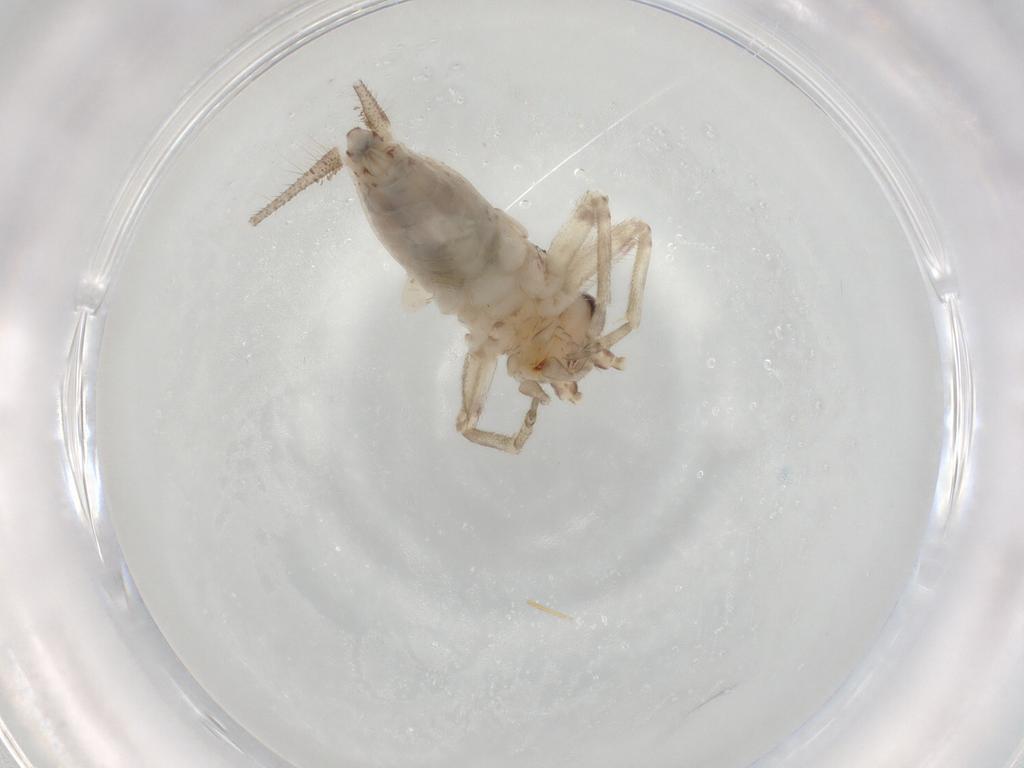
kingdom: Animalia
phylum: Arthropoda
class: Insecta
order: Orthoptera
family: Trigonidiidae
